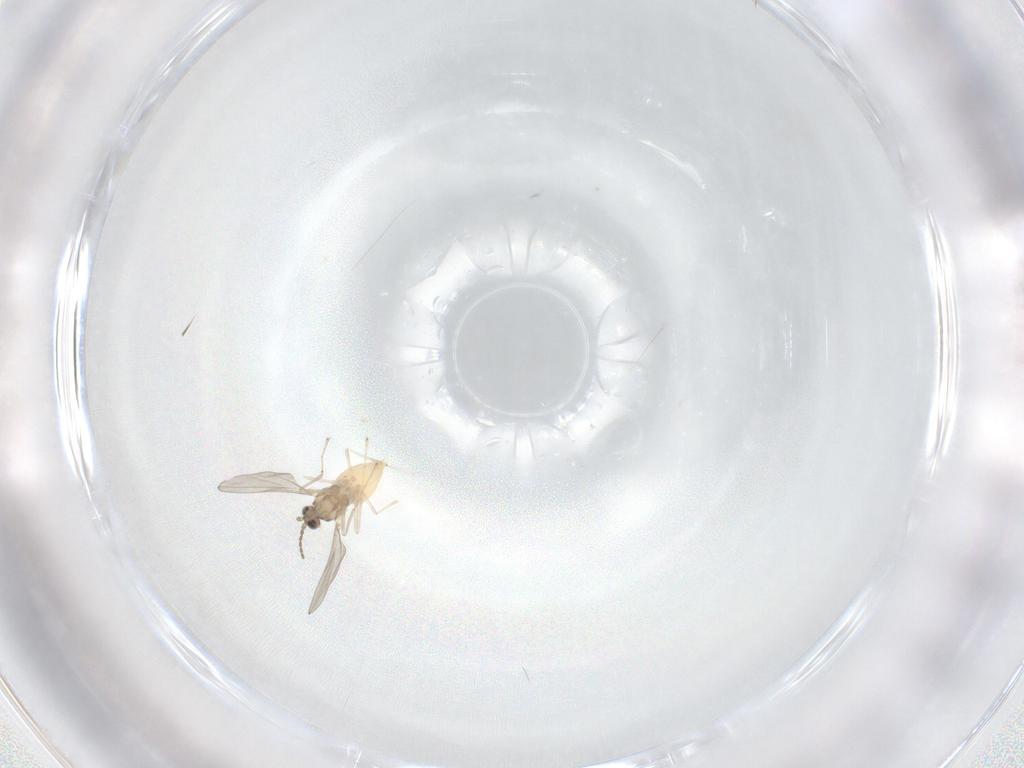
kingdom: Animalia
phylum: Arthropoda
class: Insecta
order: Diptera
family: Cecidomyiidae
